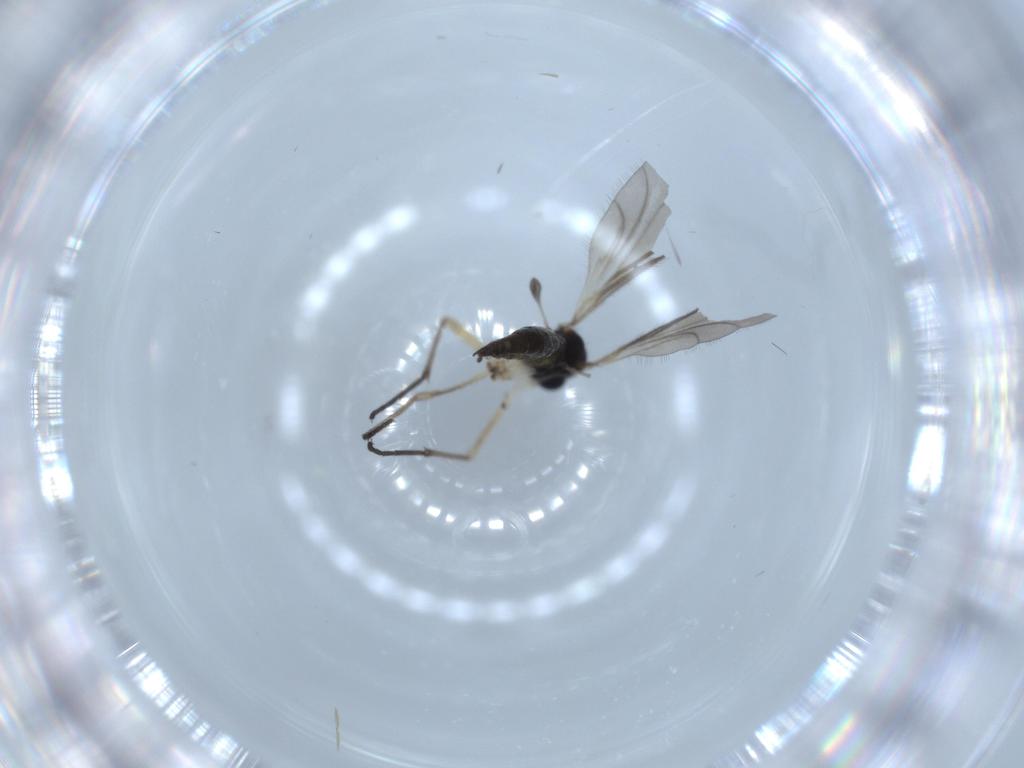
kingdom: Animalia
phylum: Arthropoda
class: Insecta
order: Diptera
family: Sciaridae
